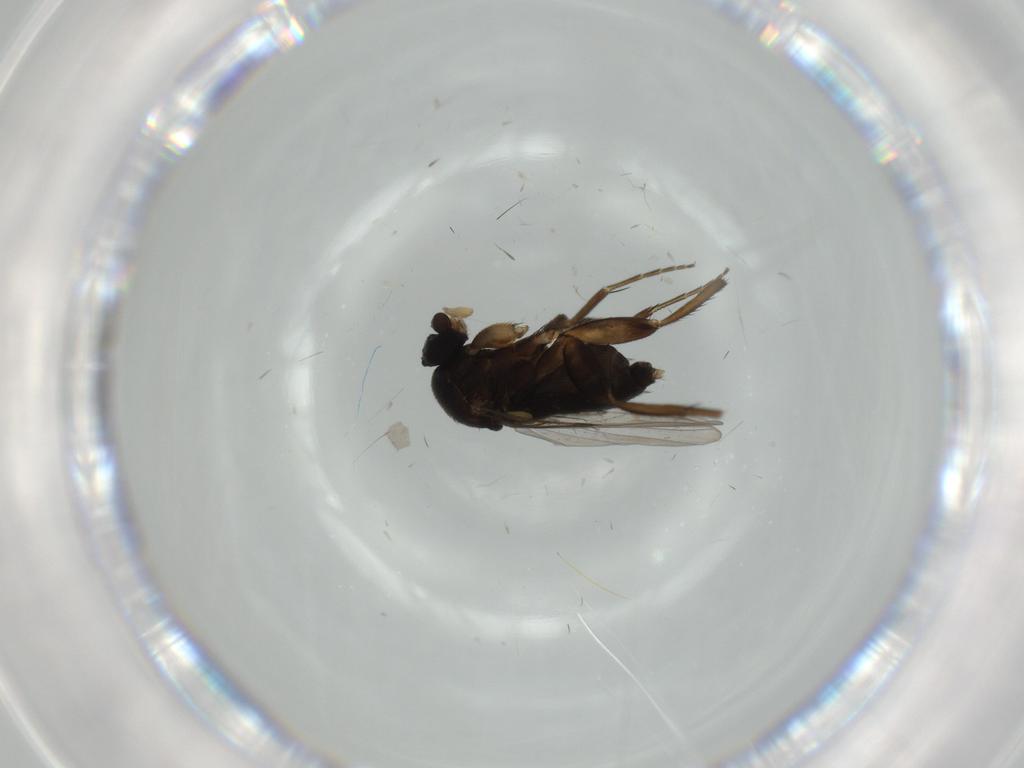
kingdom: Animalia
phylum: Arthropoda
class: Insecta
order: Diptera
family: Phoridae
